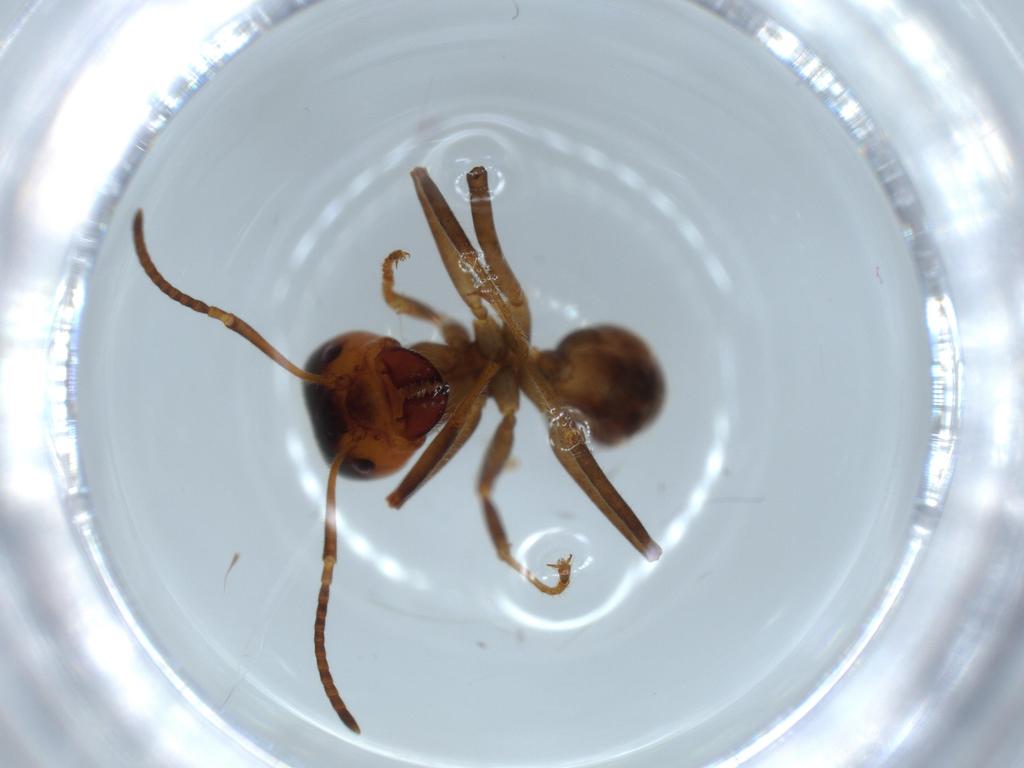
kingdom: Animalia
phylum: Arthropoda
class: Insecta
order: Hymenoptera
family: Formicidae
